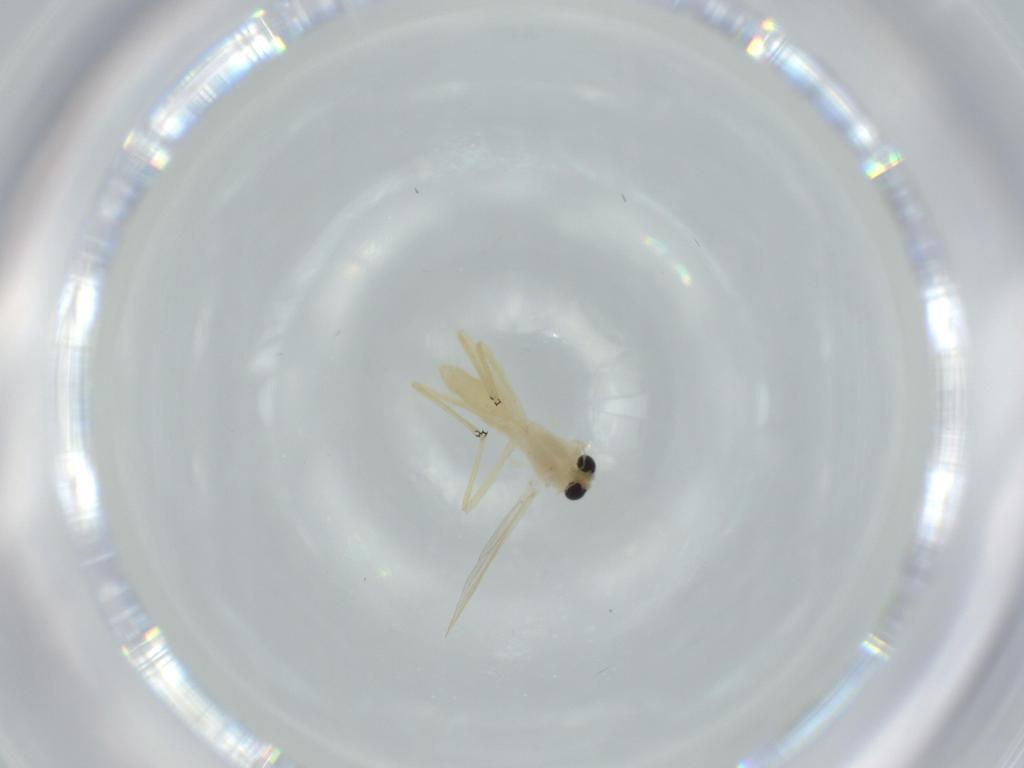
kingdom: Animalia
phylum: Arthropoda
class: Insecta
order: Diptera
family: Chironomidae
